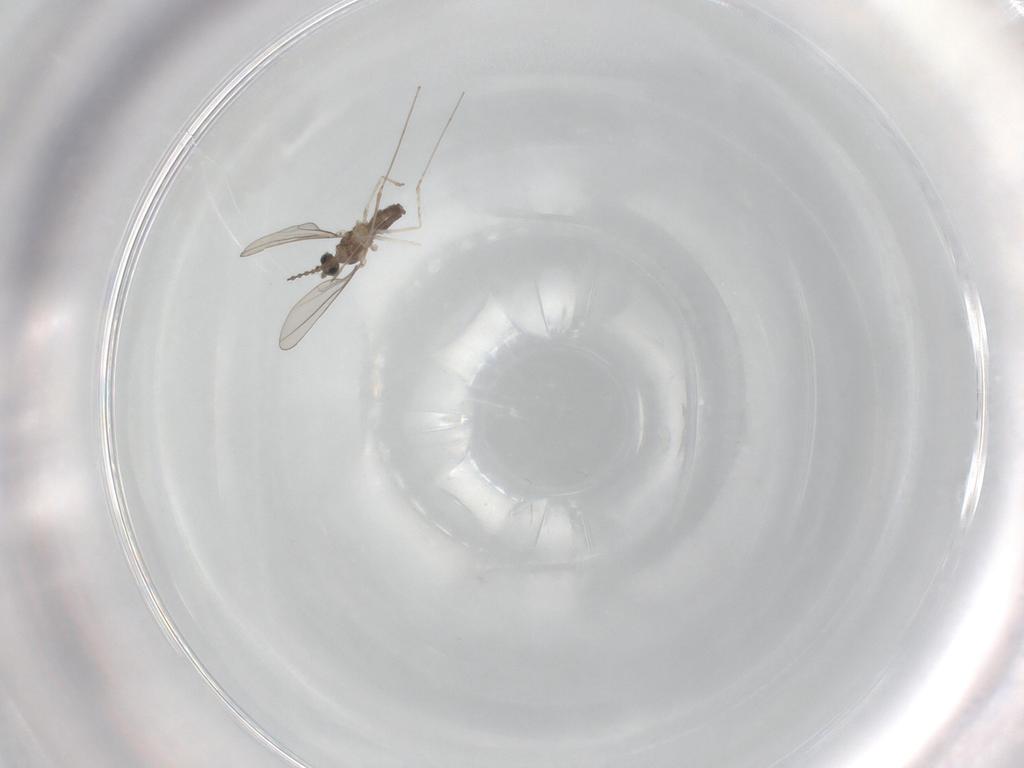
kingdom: Animalia
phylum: Arthropoda
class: Insecta
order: Diptera
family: Cecidomyiidae
